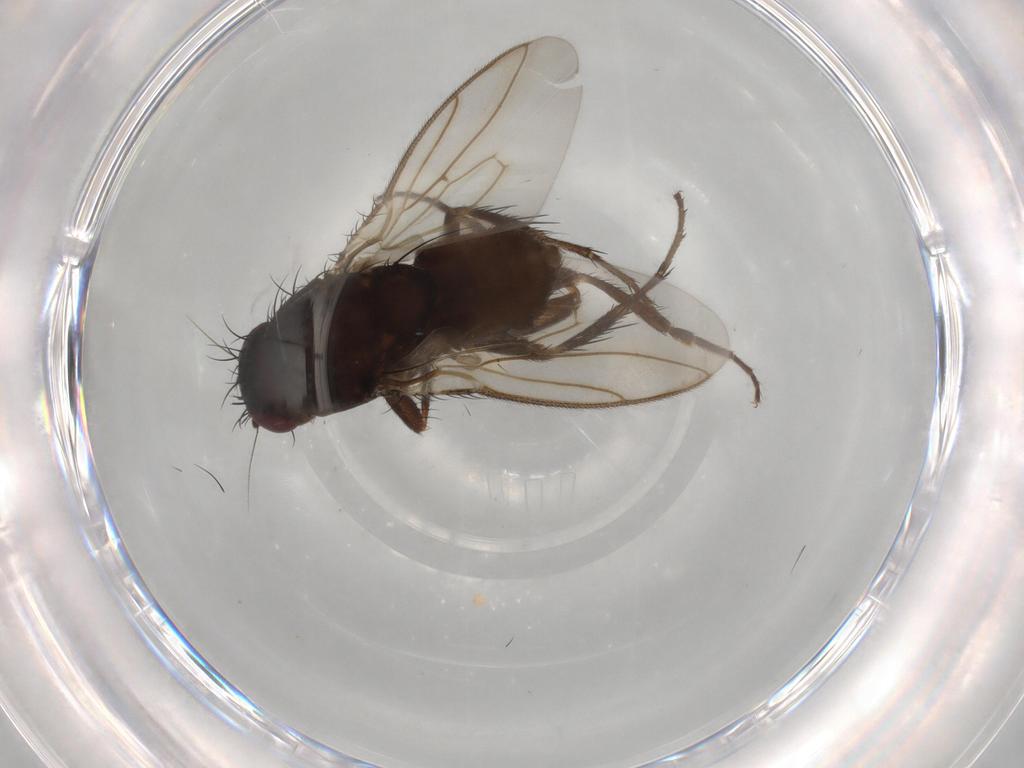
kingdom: Animalia
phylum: Arthropoda
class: Insecta
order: Diptera
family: Sphaeroceridae
